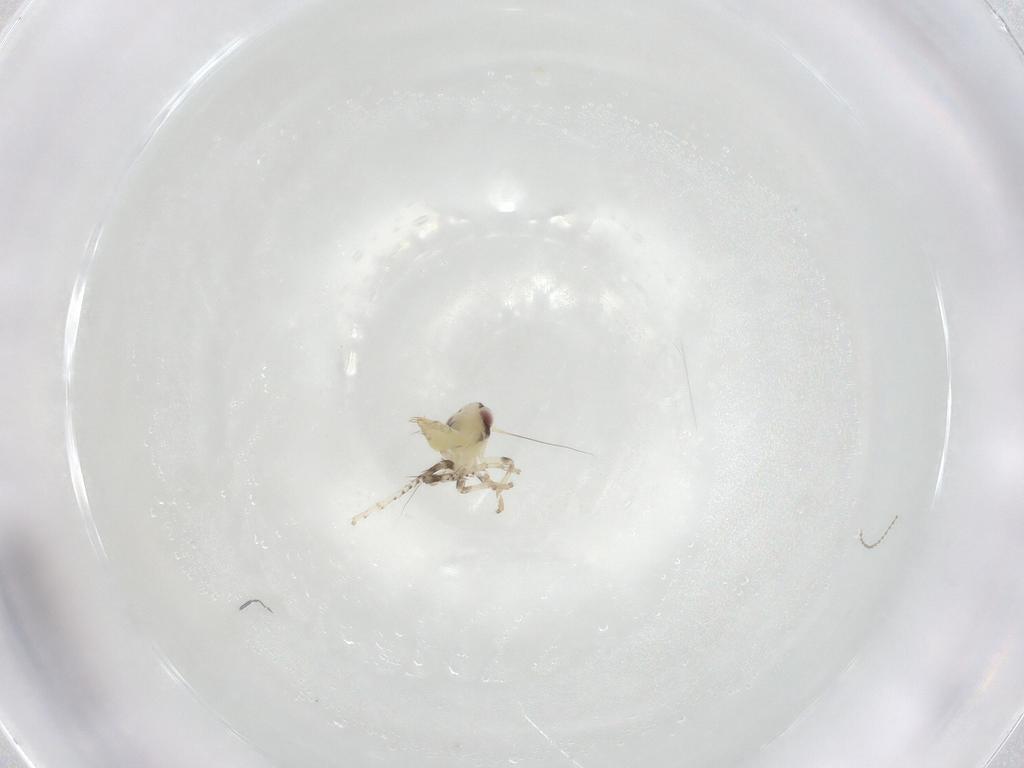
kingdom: Animalia
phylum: Arthropoda
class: Insecta
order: Hemiptera
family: Cicadellidae
